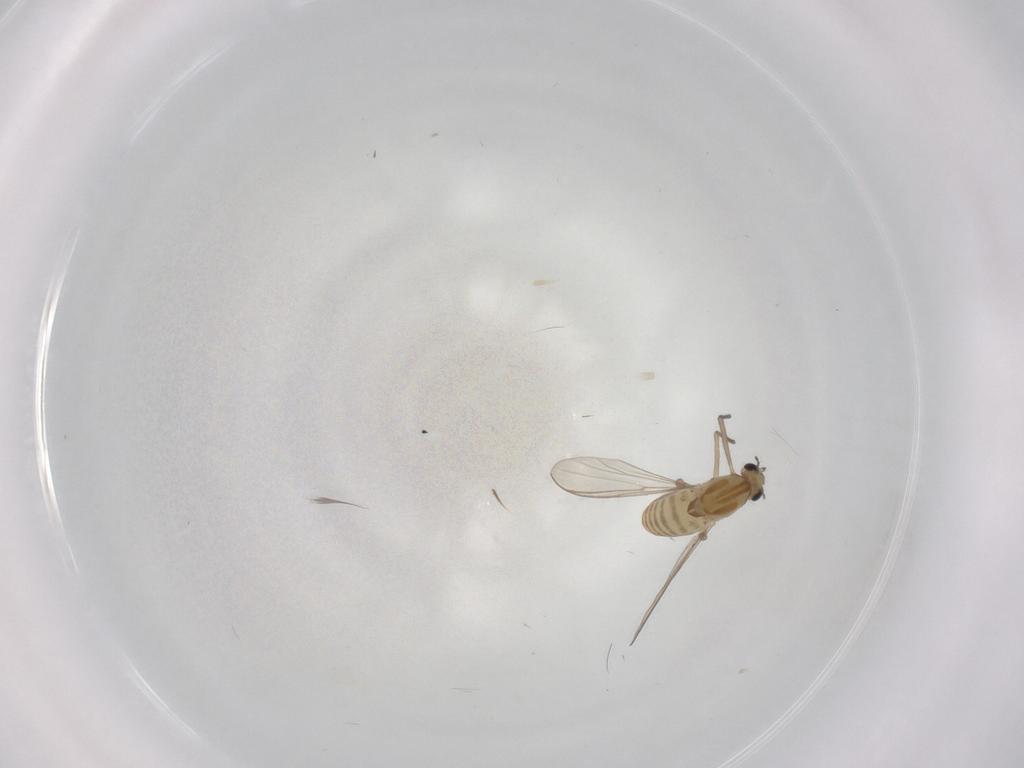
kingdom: Animalia
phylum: Arthropoda
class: Insecta
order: Diptera
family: Chironomidae
